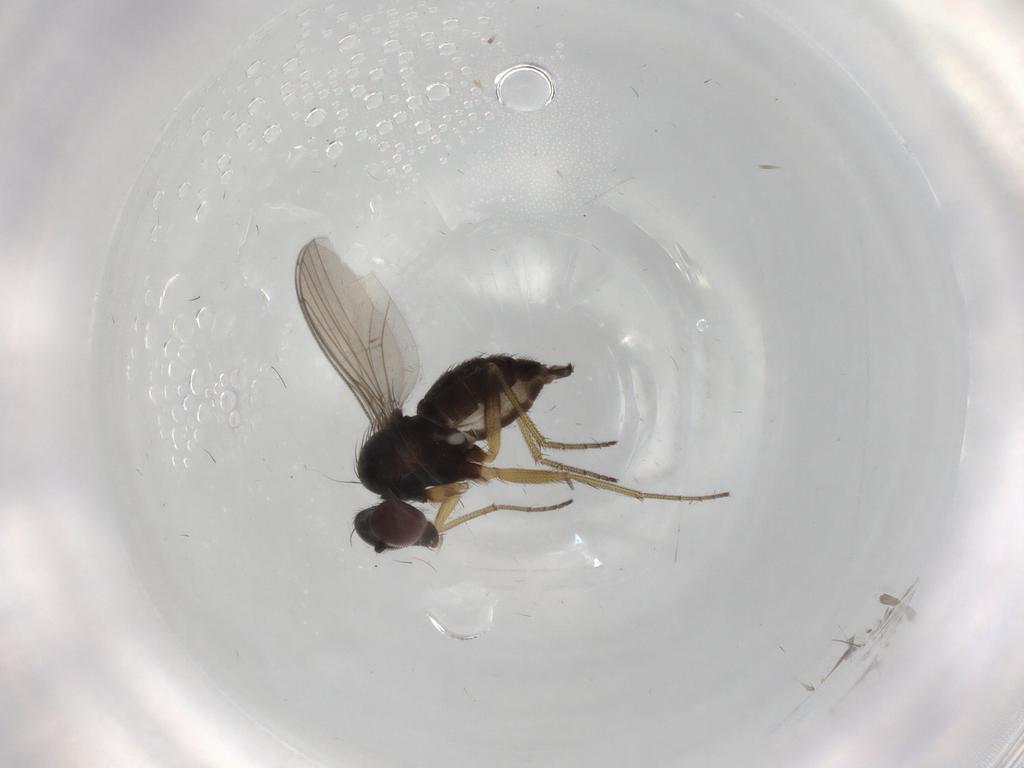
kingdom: Animalia
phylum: Arthropoda
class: Insecta
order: Diptera
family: Dolichopodidae
